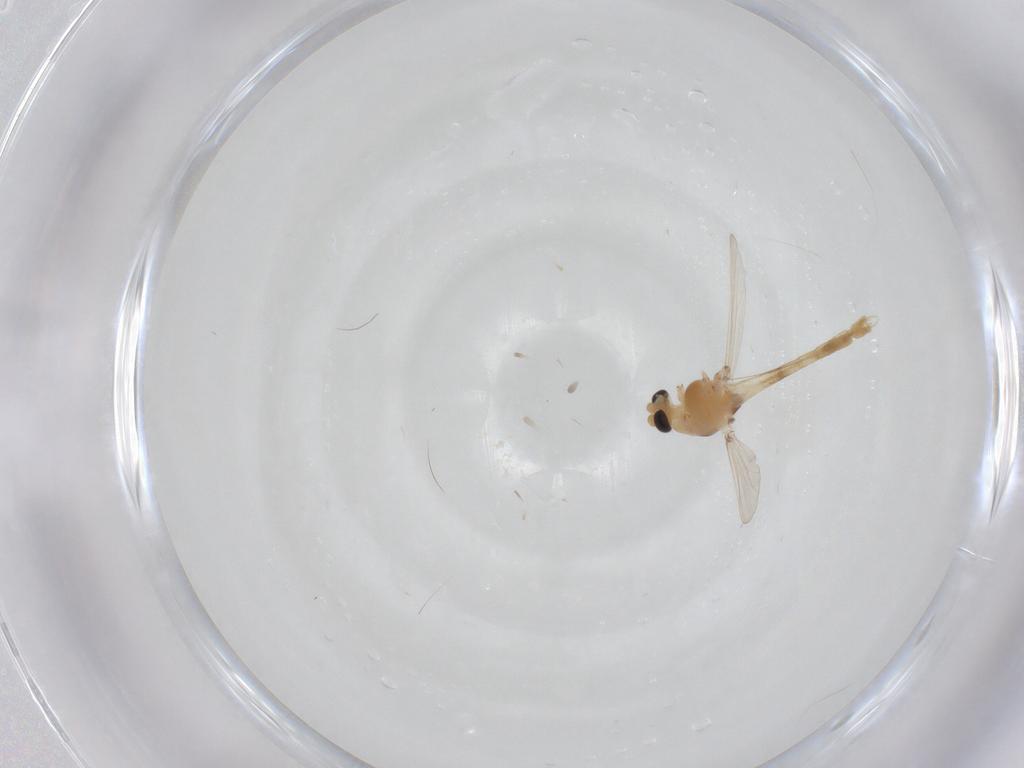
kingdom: Animalia
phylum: Arthropoda
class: Insecta
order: Diptera
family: Chironomidae
